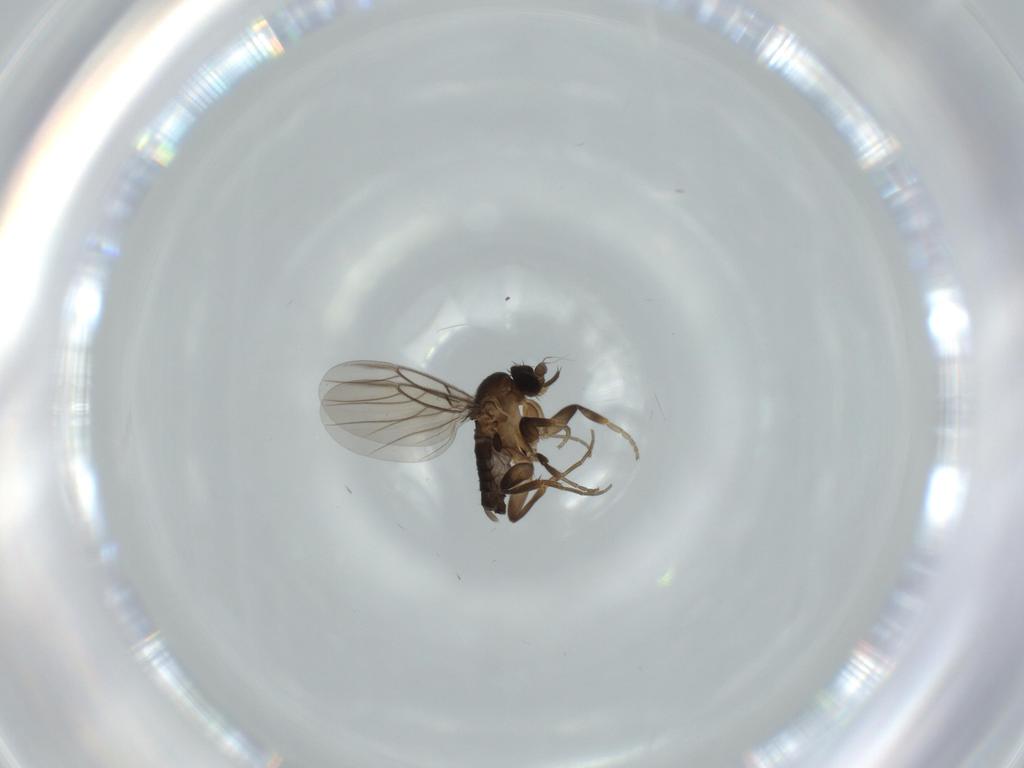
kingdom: Animalia
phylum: Arthropoda
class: Insecta
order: Diptera
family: Phoridae
